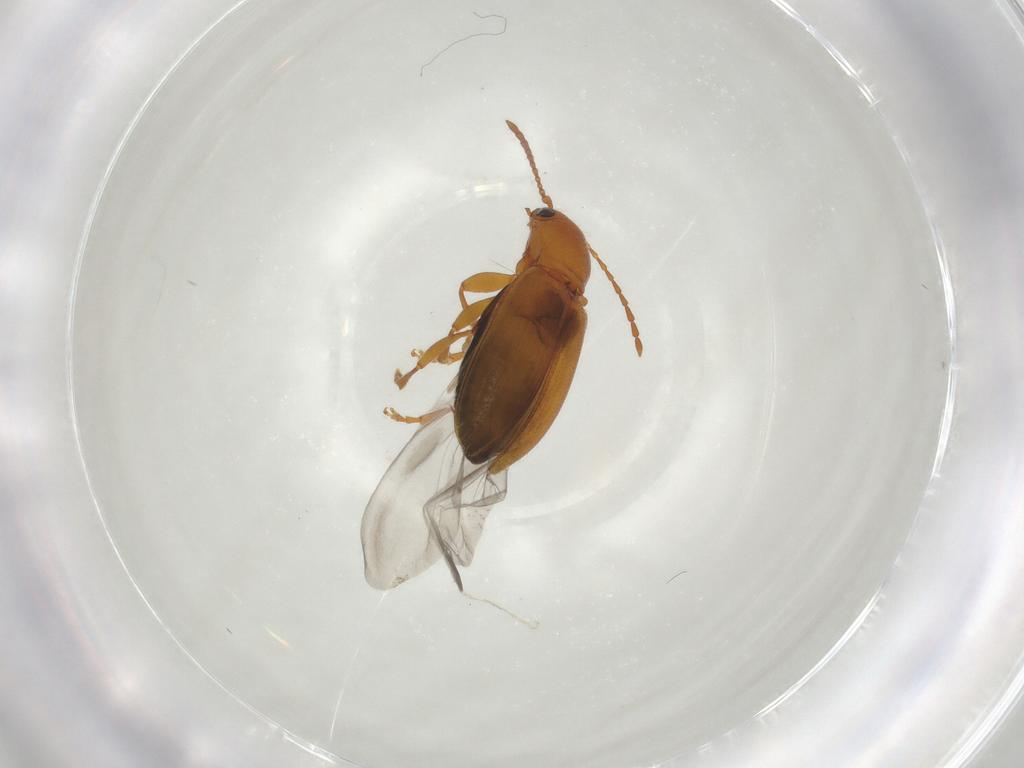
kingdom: Animalia
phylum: Arthropoda
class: Insecta
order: Coleoptera
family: Chrysomelidae
